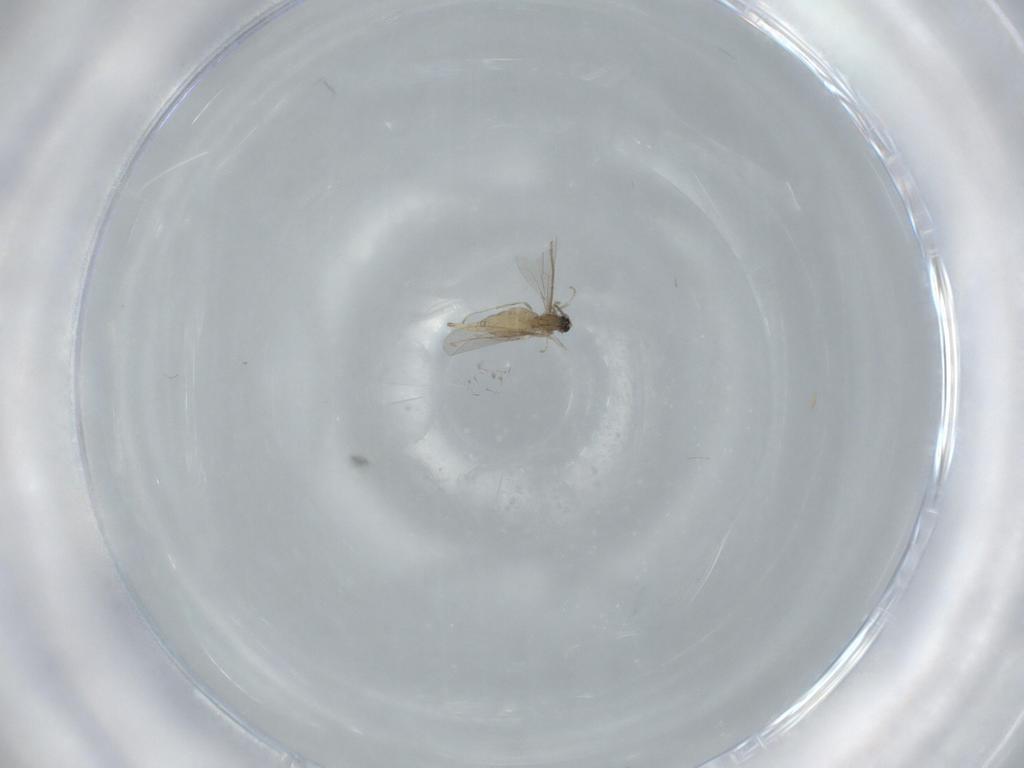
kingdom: Animalia
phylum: Arthropoda
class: Insecta
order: Diptera
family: Cecidomyiidae
